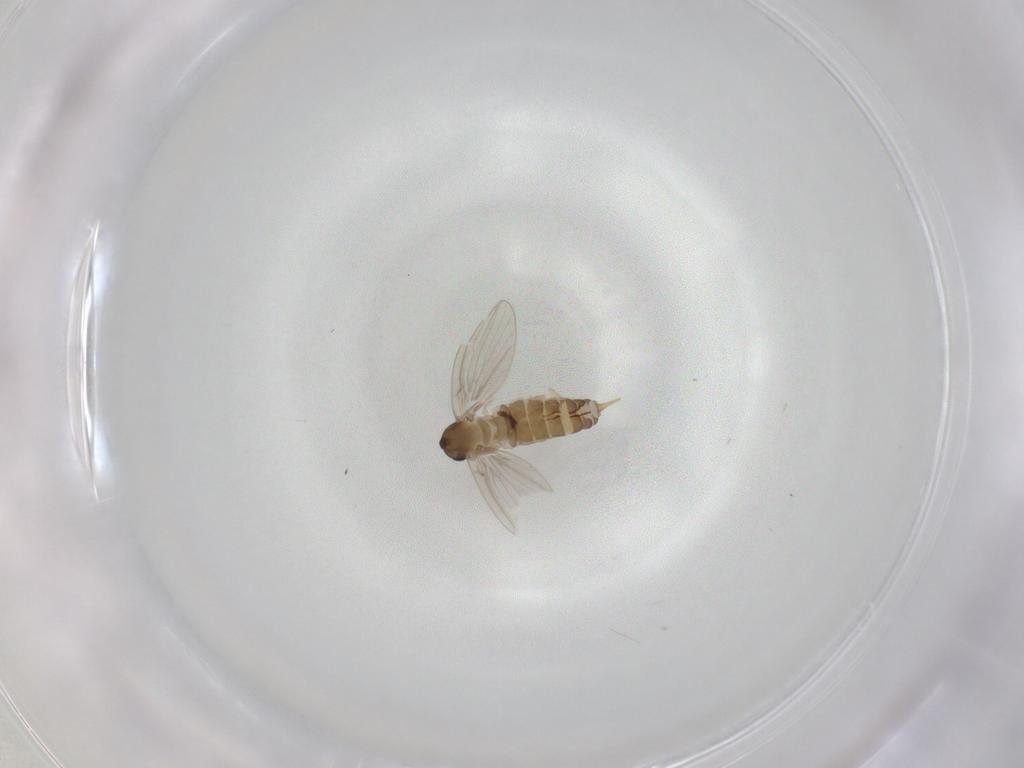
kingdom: Animalia
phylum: Arthropoda
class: Insecta
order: Diptera
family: Psychodidae
